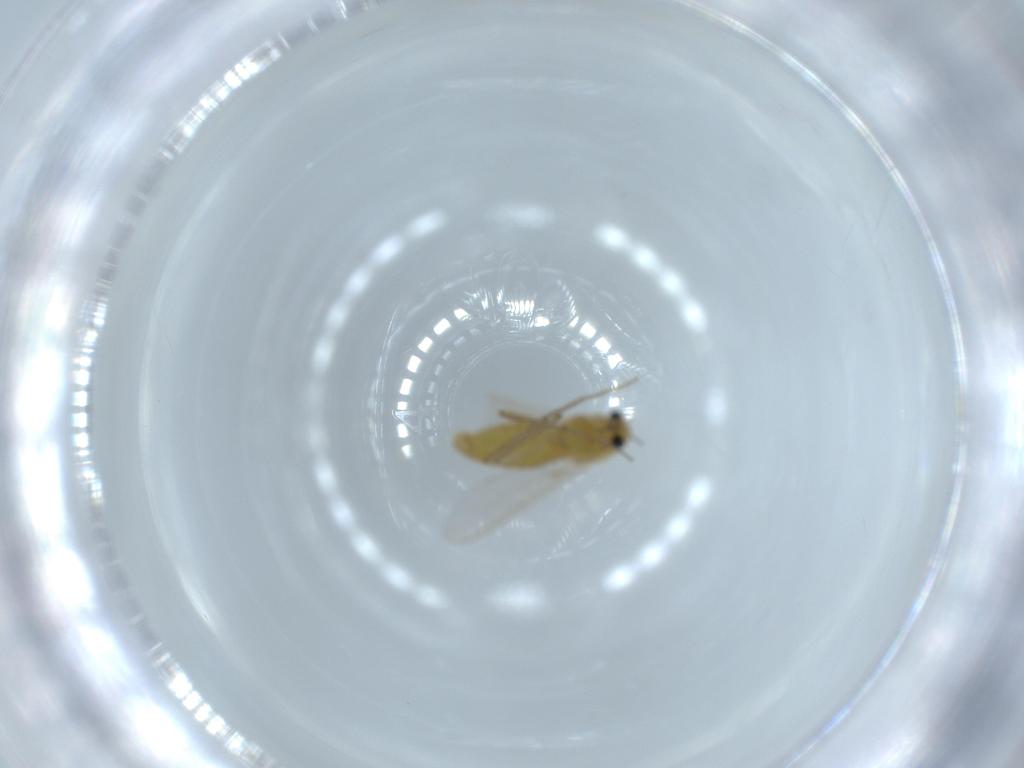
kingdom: Animalia
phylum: Arthropoda
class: Insecta
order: Diptera
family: Chironomidae
